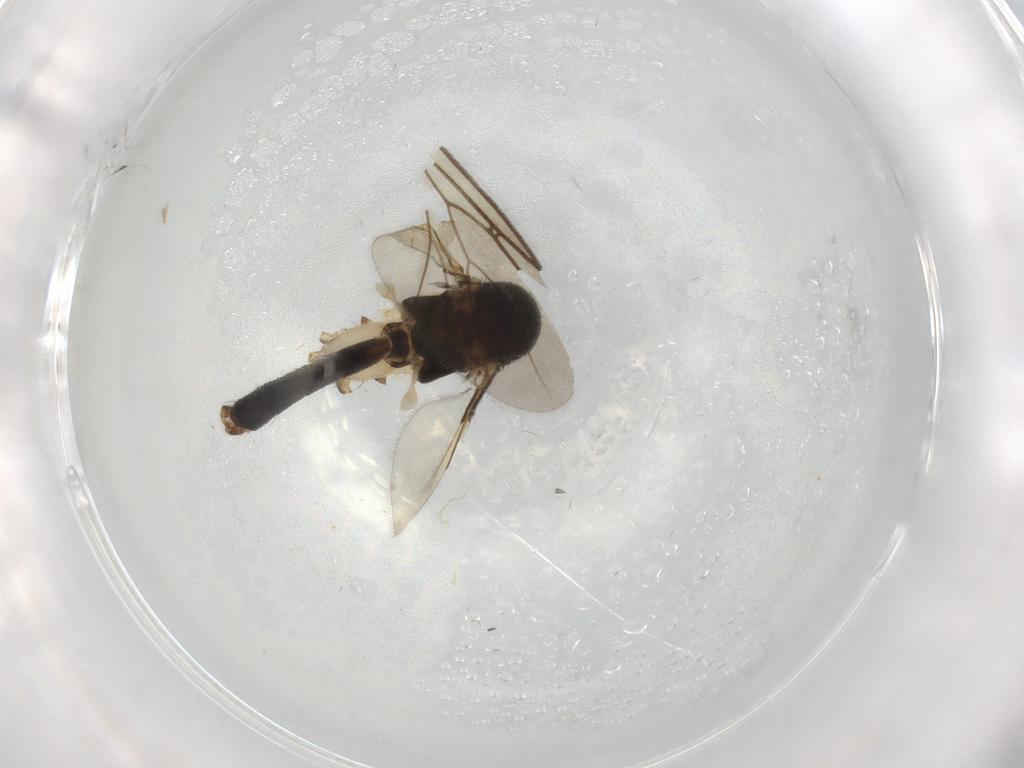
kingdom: Animalia
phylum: Arthropoda
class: Insecta
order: Diptera
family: Mycetophilidae
